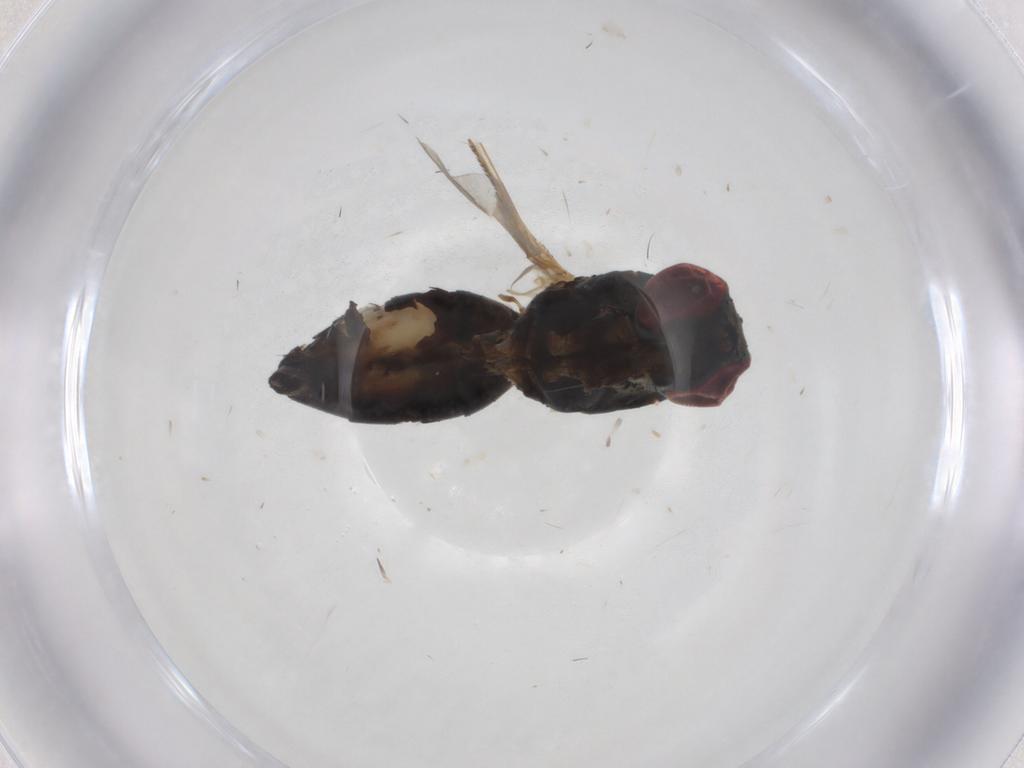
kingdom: Animalia
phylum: Arthropoda
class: Insecta
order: Diptera
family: Muscidae
